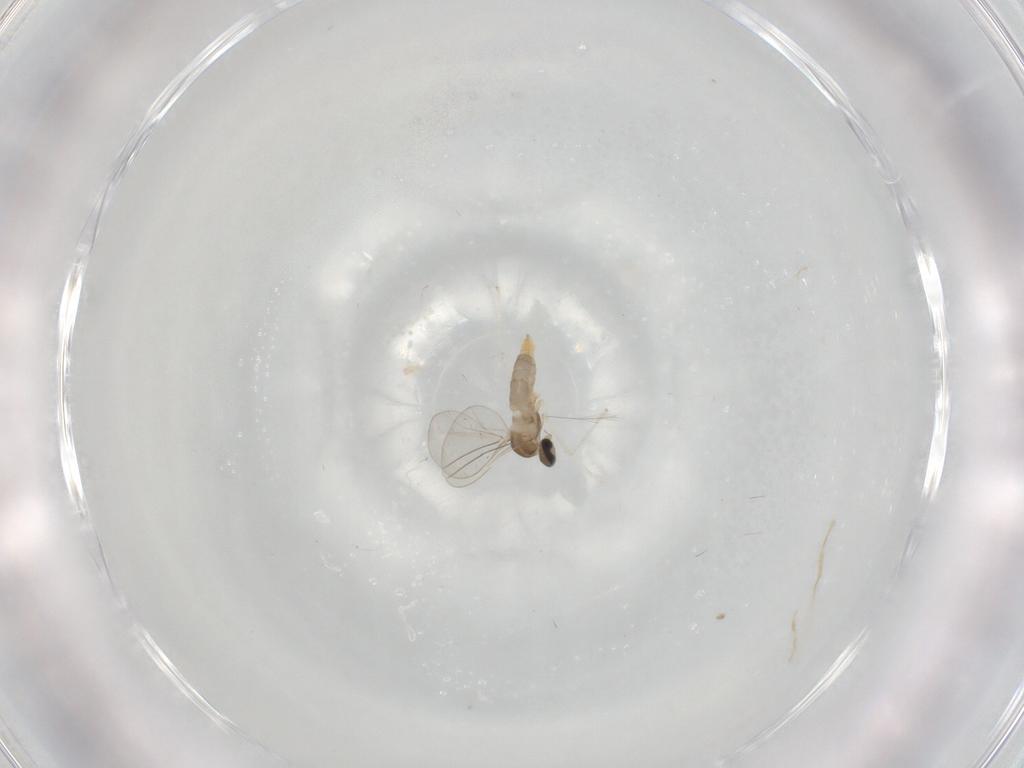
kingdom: Animalia
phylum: Arthropoda
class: Insecta
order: Diptera
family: Cecidomyiidae
